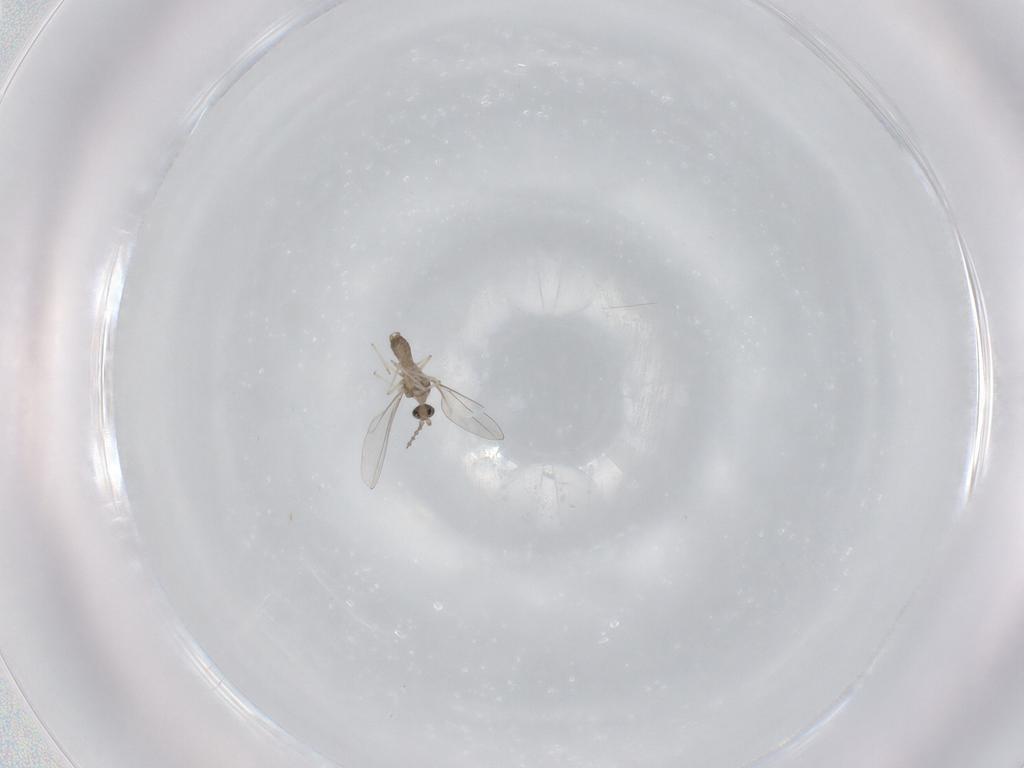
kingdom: Animalia
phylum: Arthropoda
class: Insecta
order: Diptera
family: Cecidomyiidae
